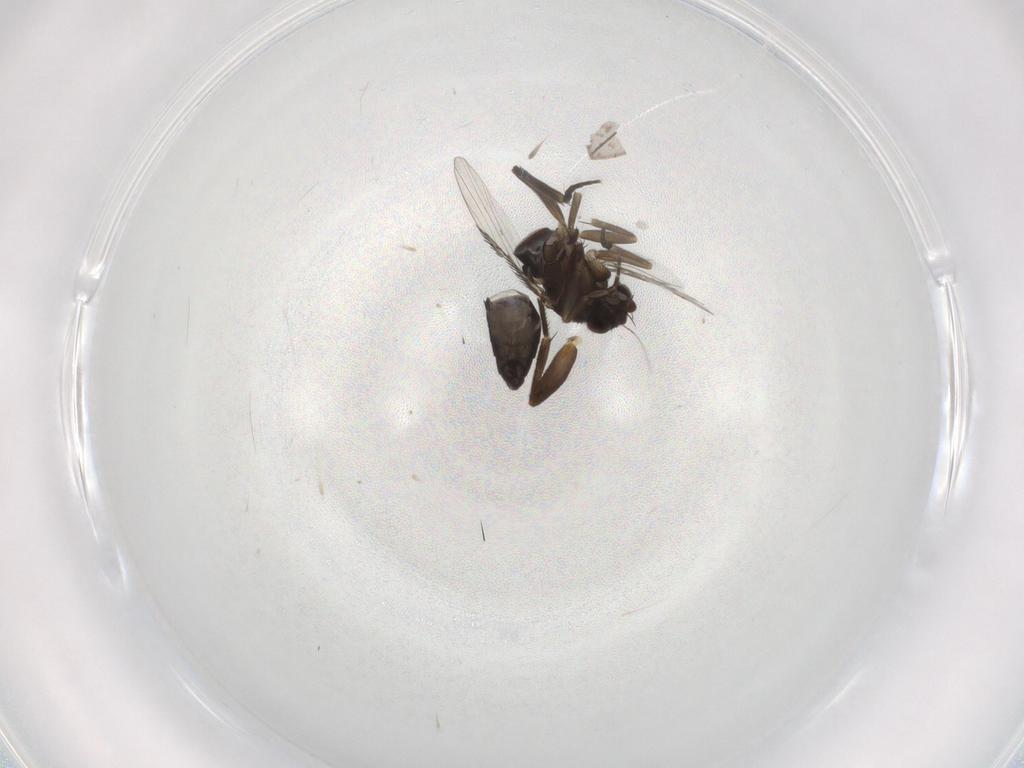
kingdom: Animalia
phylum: Arthropoda
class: Insecta
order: Diptera
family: Phoridae
